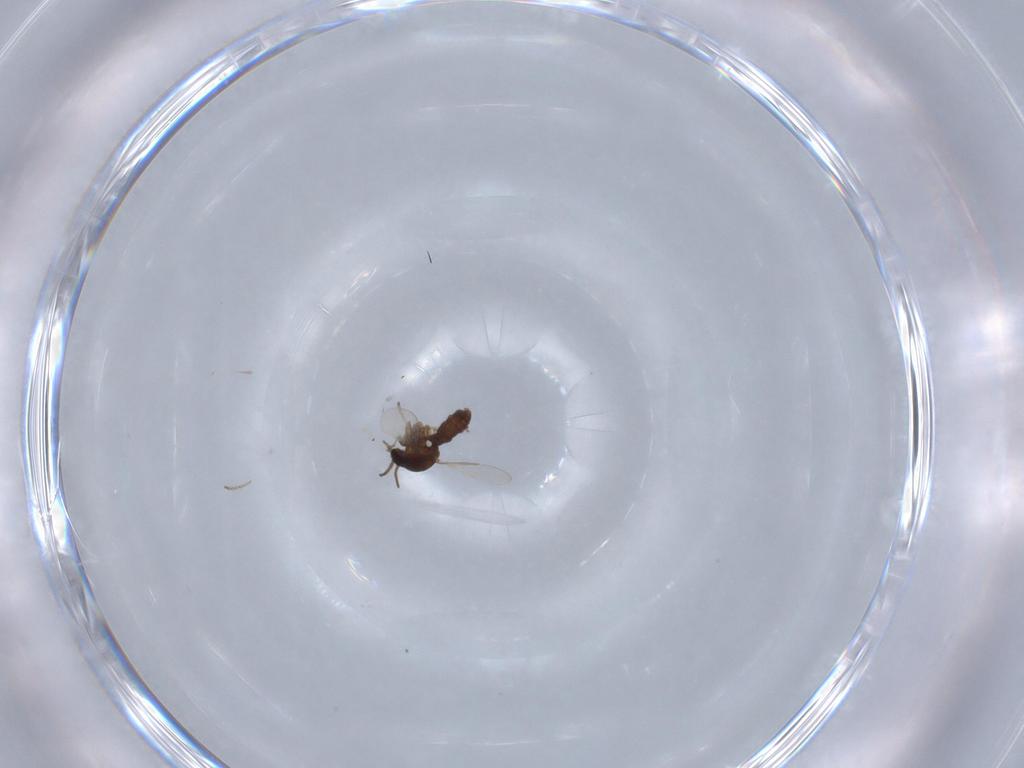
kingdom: Animalia
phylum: Arthropoda
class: Insecta
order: Diptera
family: Ceratopogonidae
